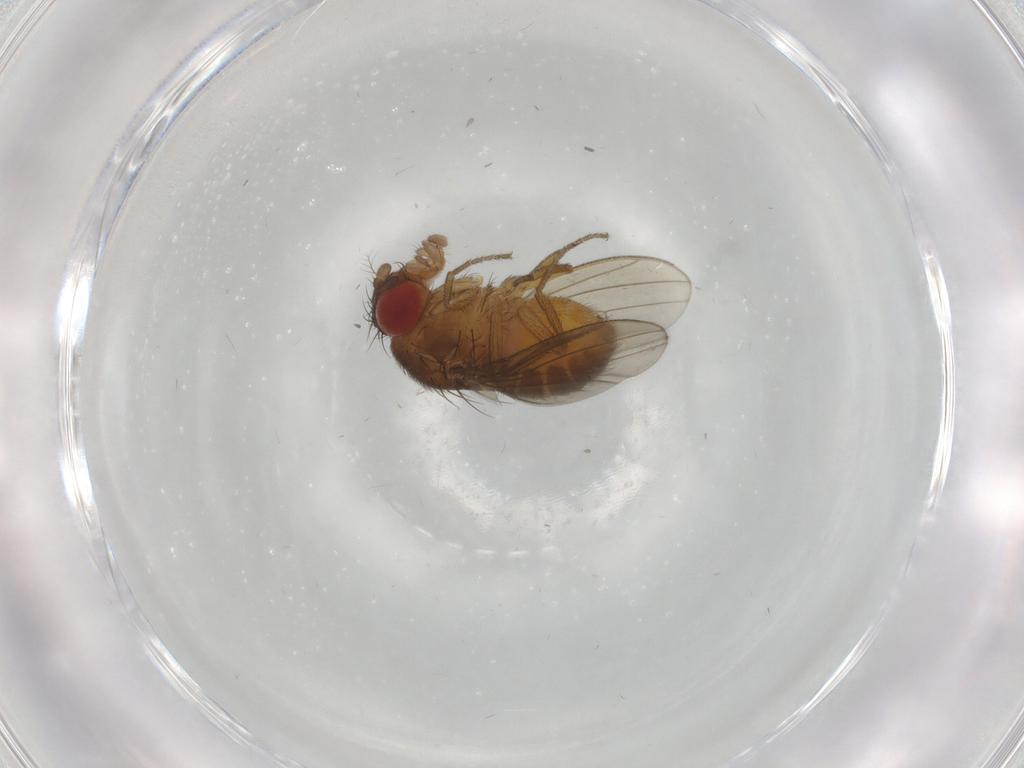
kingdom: Animalia
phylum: Arthropoda
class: Insecta
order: Diptera
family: Drosophilidae
